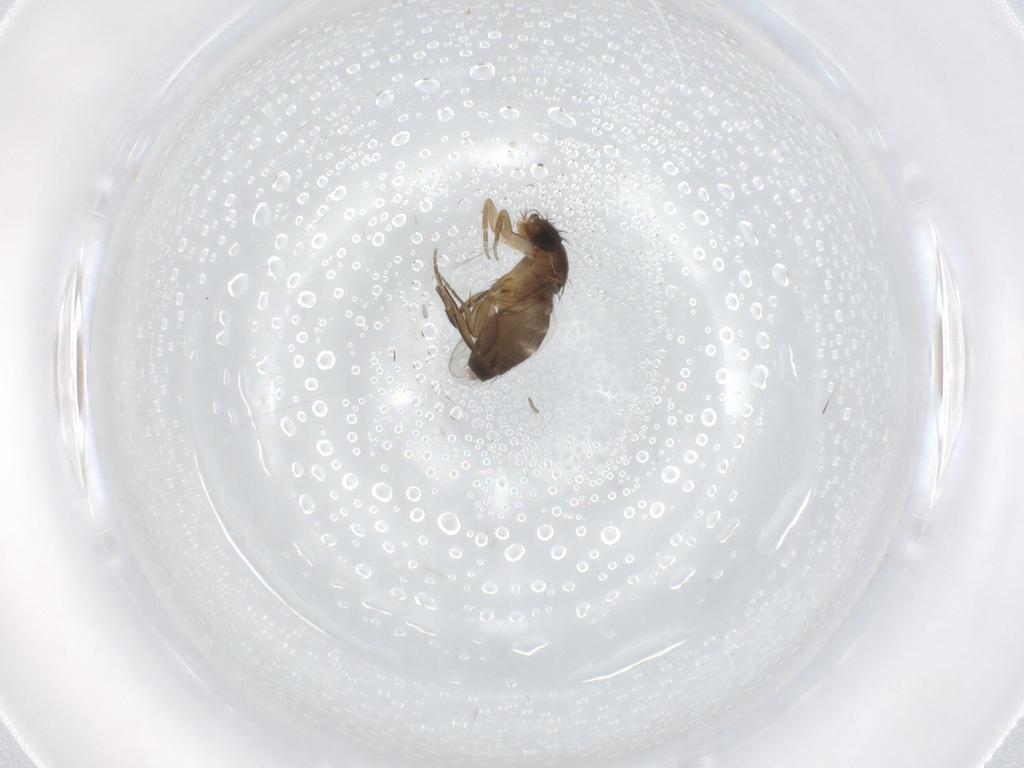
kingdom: Animalia
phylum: Arthropoda
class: Insecta
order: Diptera
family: Phoridae
